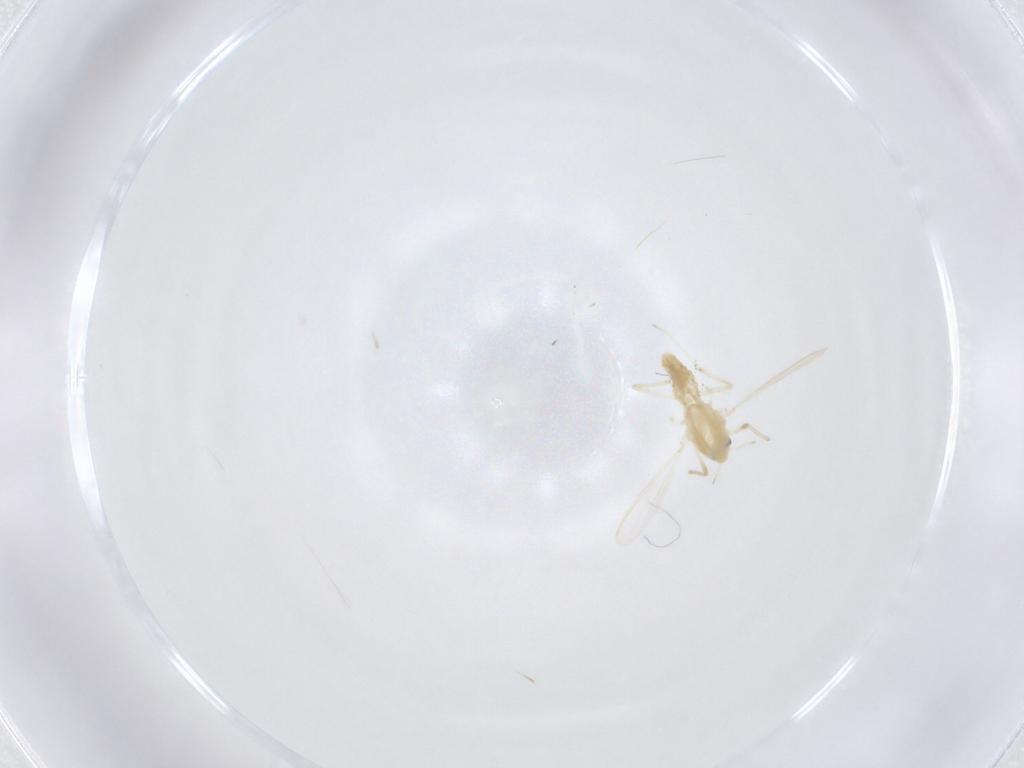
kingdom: Animalia
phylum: Arthropoda
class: Insecta
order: Diptera
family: Chironomidae
